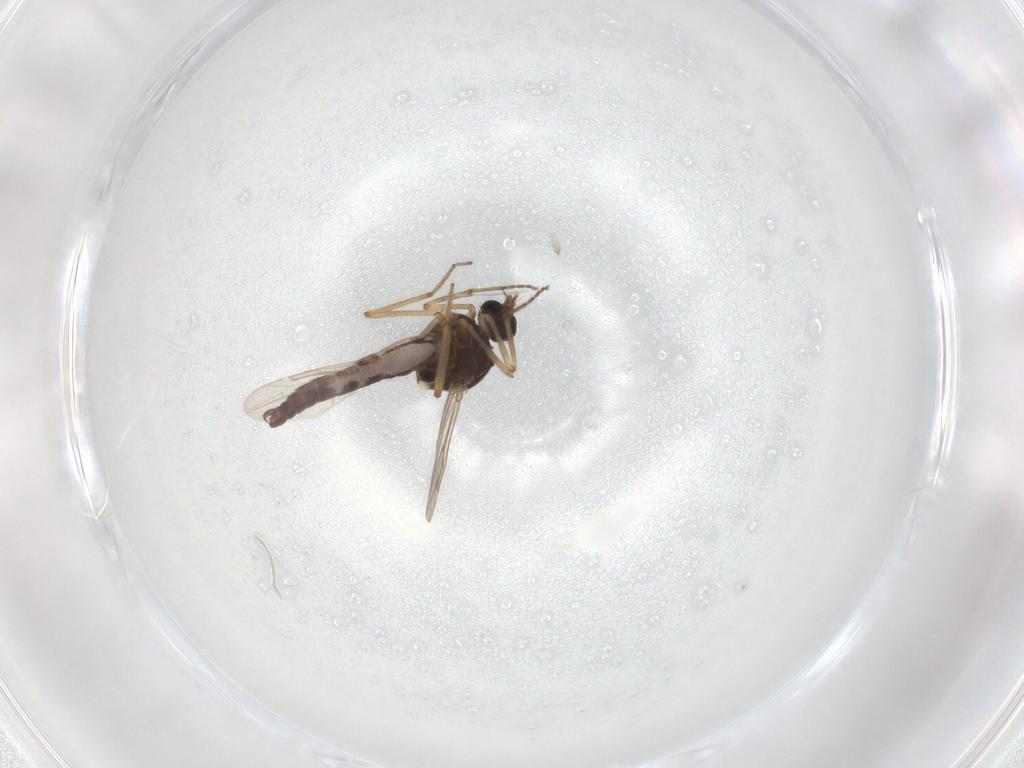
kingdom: Animalia
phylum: Arthropoda
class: Insecta
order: Diptera
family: Ceratopogonidae
